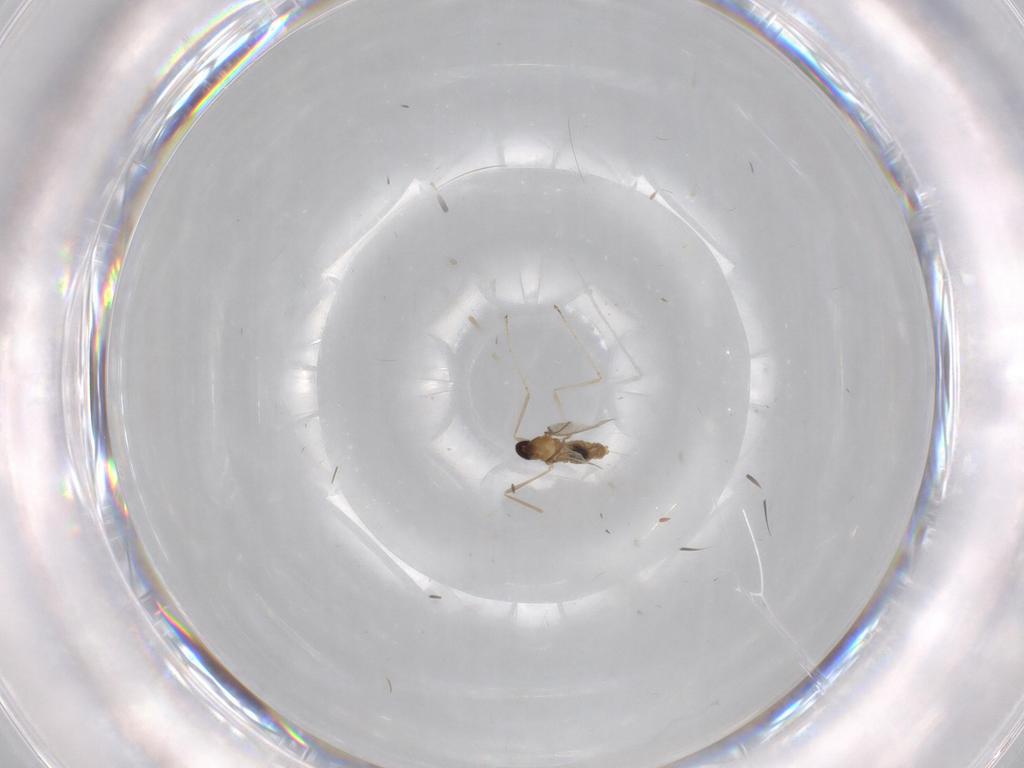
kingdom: Animalia
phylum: Arthropoda
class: Insecta
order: Diptera
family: Cecidomyiidae
